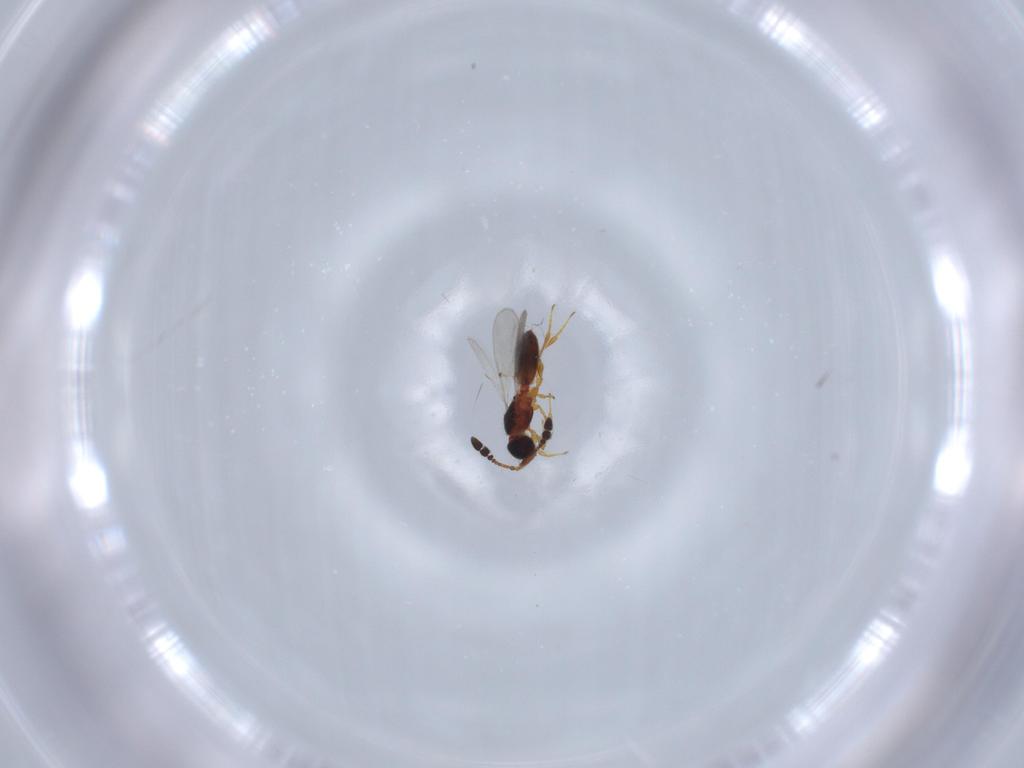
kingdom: Animalia
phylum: Arthropoda
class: Insecta
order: Hymenoptera
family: Diapriidae
